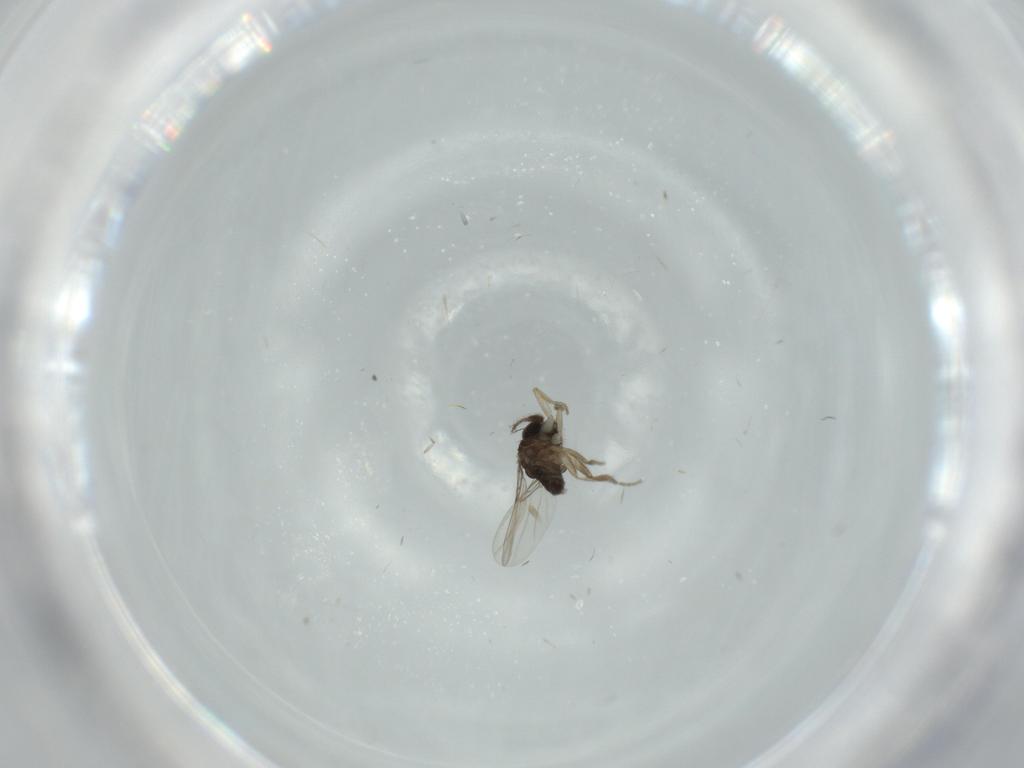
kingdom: Animalia
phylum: Arthropoda
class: Insecta
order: Diptera
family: Phoridae
